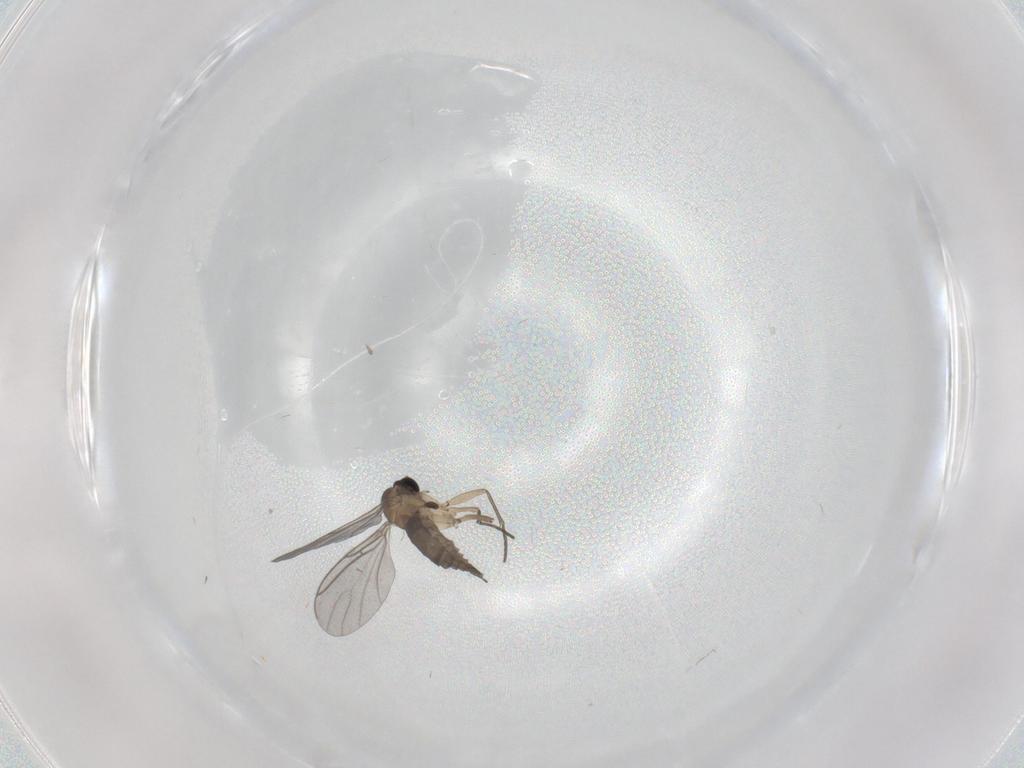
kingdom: Animalia
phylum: Arthropoda
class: Insecta
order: Diptera
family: Sciaridae
